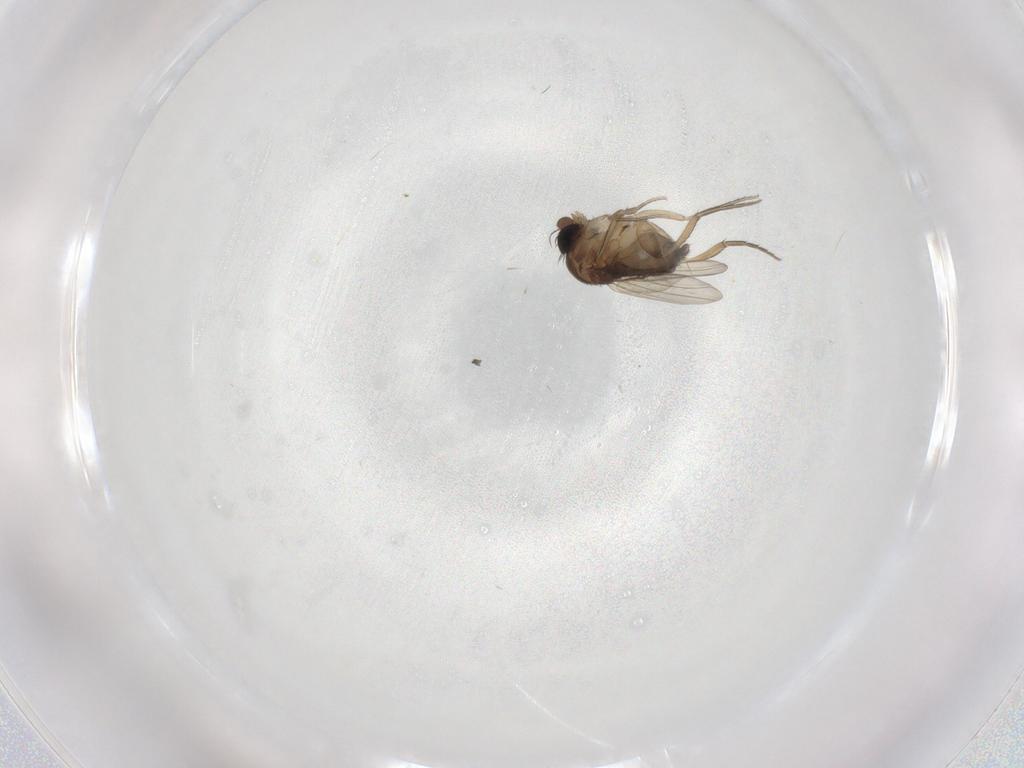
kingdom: Animalia
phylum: Arthropoda
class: Insecta
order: Diptera
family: Phoridae
